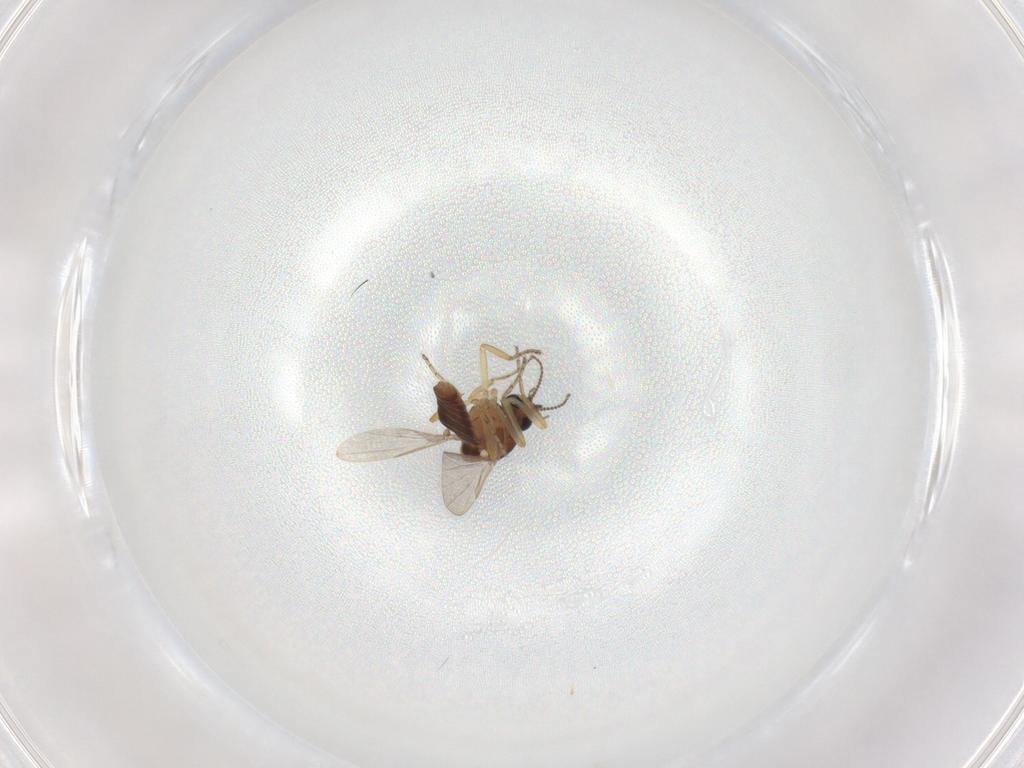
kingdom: Animalia
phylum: Arthropoda
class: Insecta
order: Diptera
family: Ceratopogonidae
